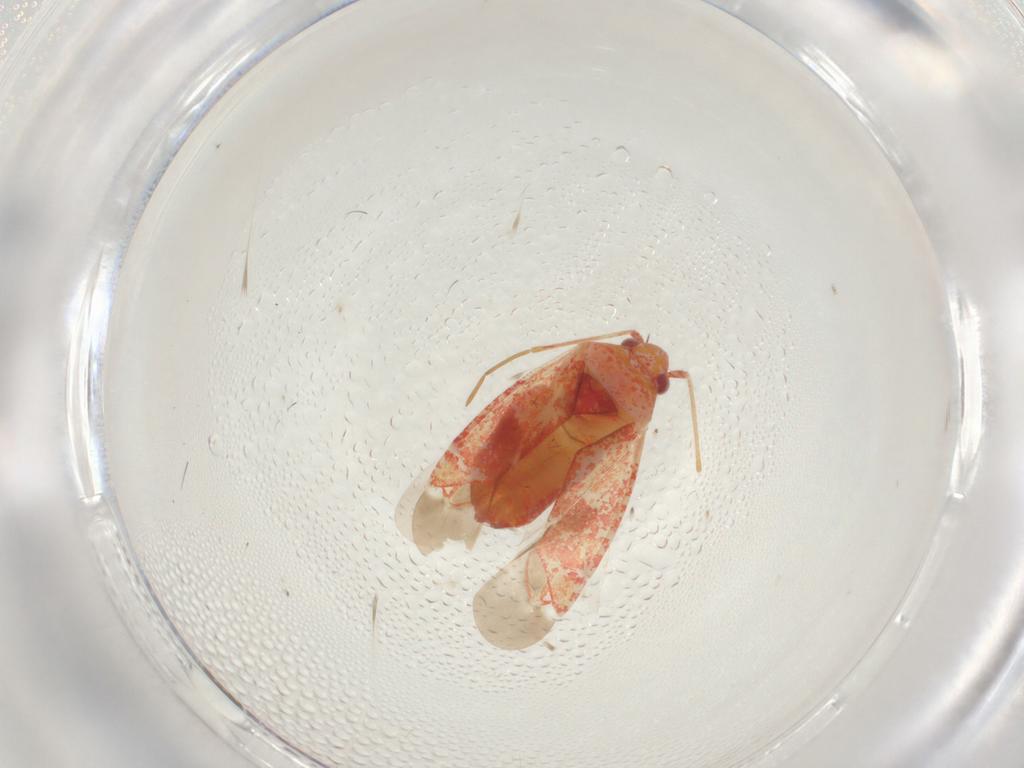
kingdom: Animalia
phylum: Arthropoda
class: Insecta
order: Hemiptera
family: Miridae
